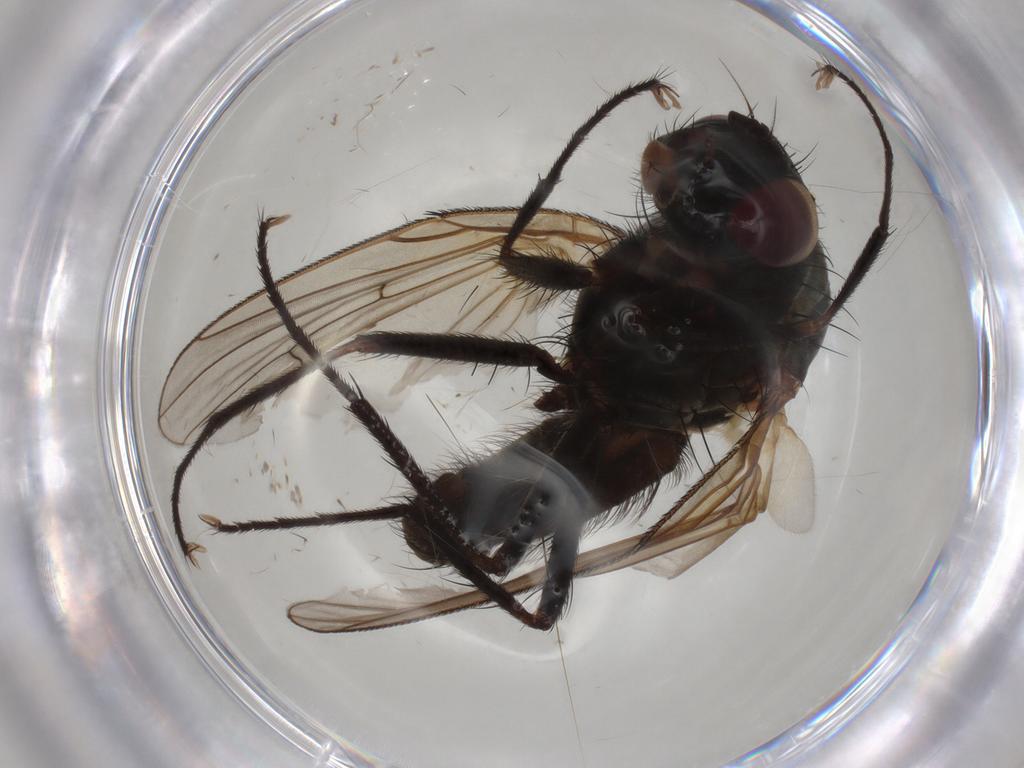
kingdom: Animalia
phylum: Arthropoda
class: Insecta
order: Diptera
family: Anthomyiidae
